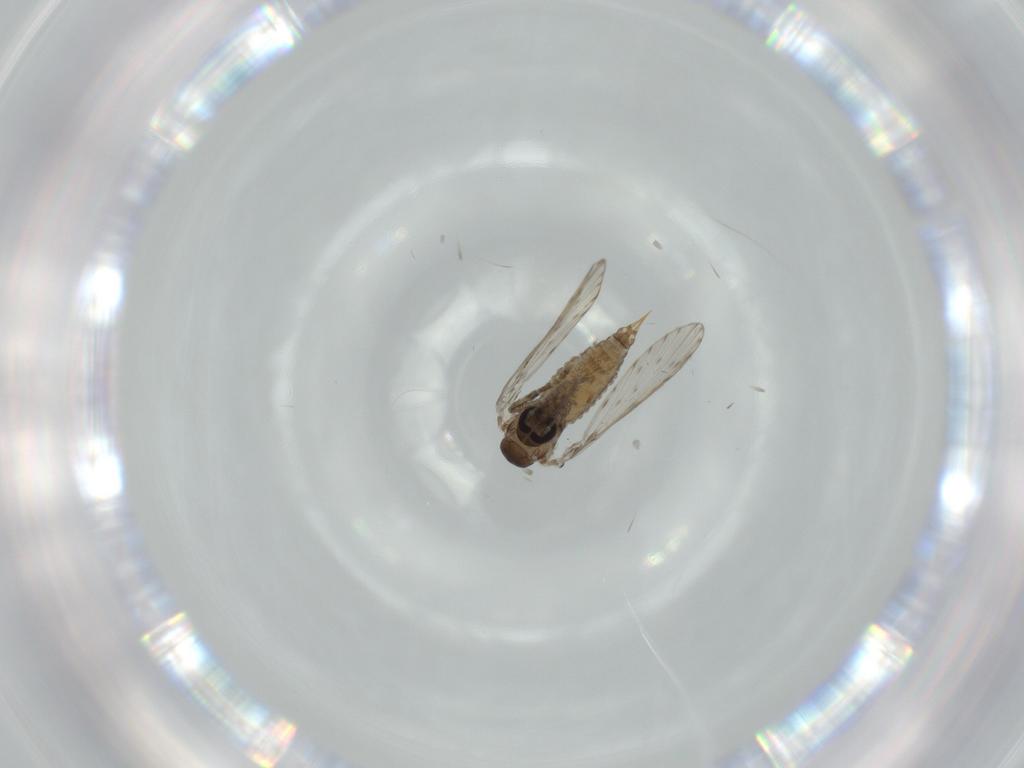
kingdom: Animalia
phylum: Arthropoda
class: Insecta
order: Diptera
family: Psychodidae
